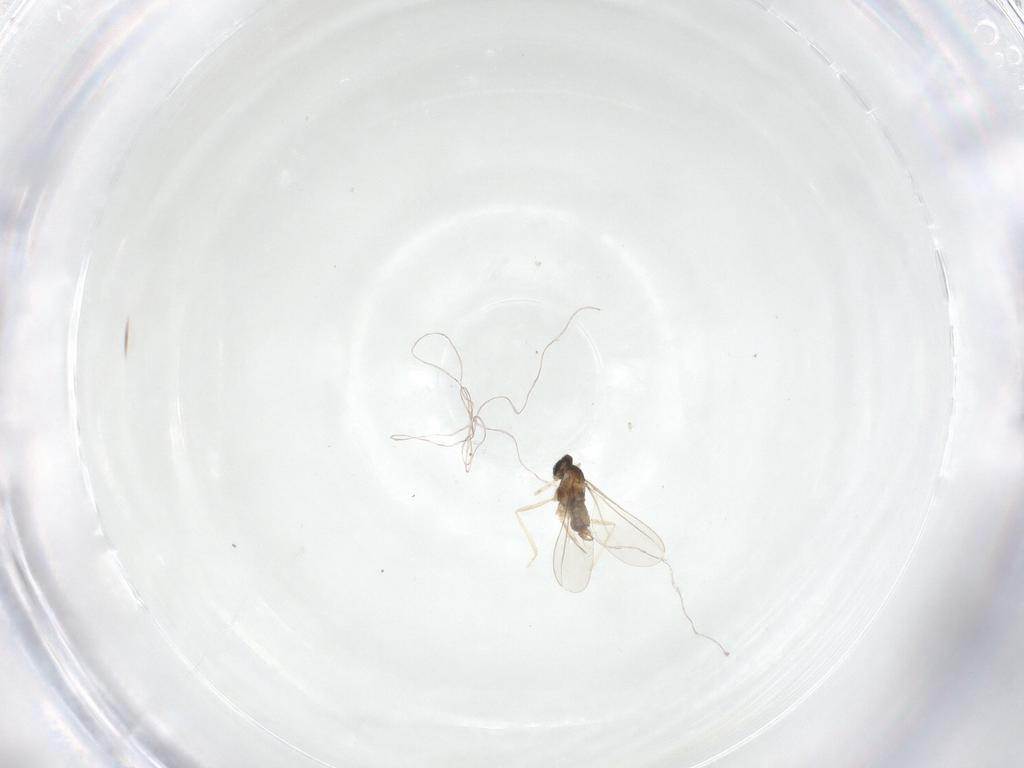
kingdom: Animalia
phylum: Arthropoda
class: Insecta
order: Diptera
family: Cecidomyiidae
